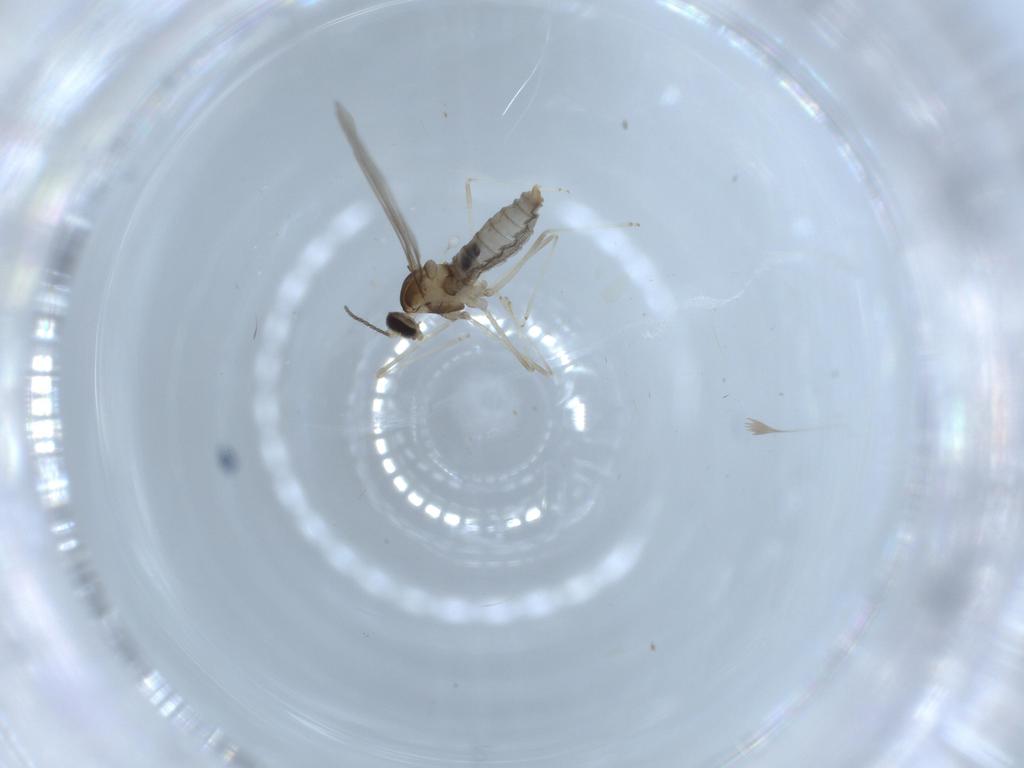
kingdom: Animalia
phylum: Arthropoda
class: Insecta
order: Diptera
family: Cecidomyiidae
